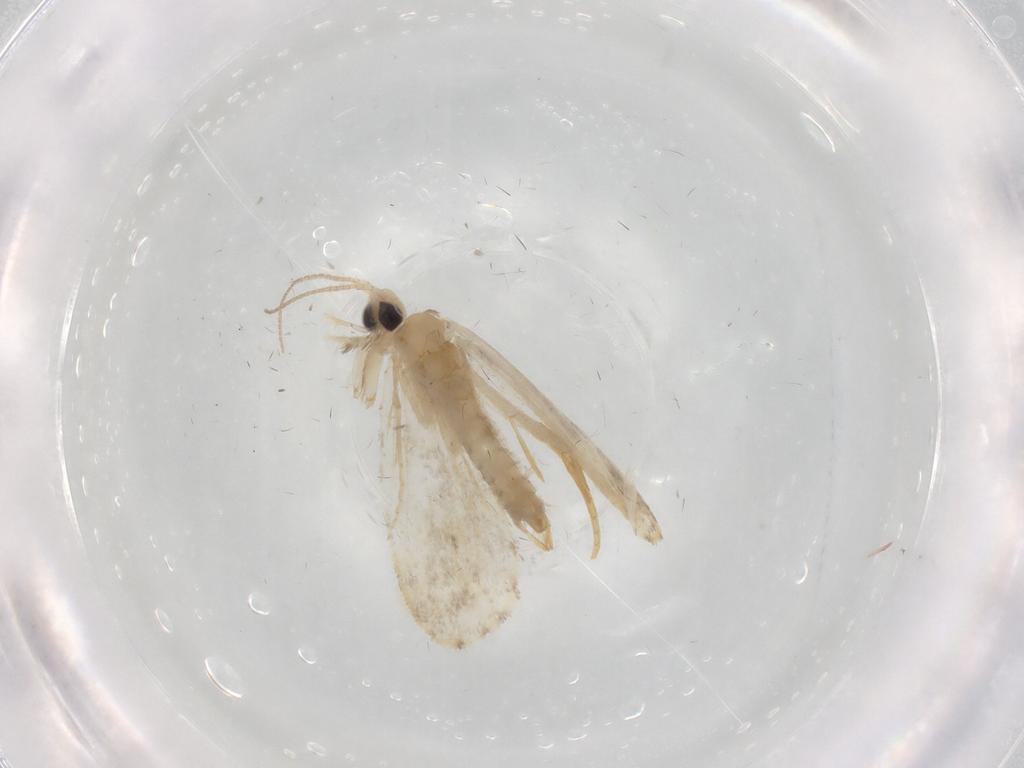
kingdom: Animalia
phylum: Arthropoda
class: Insecta
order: Lepidoptera
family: Psychidae
